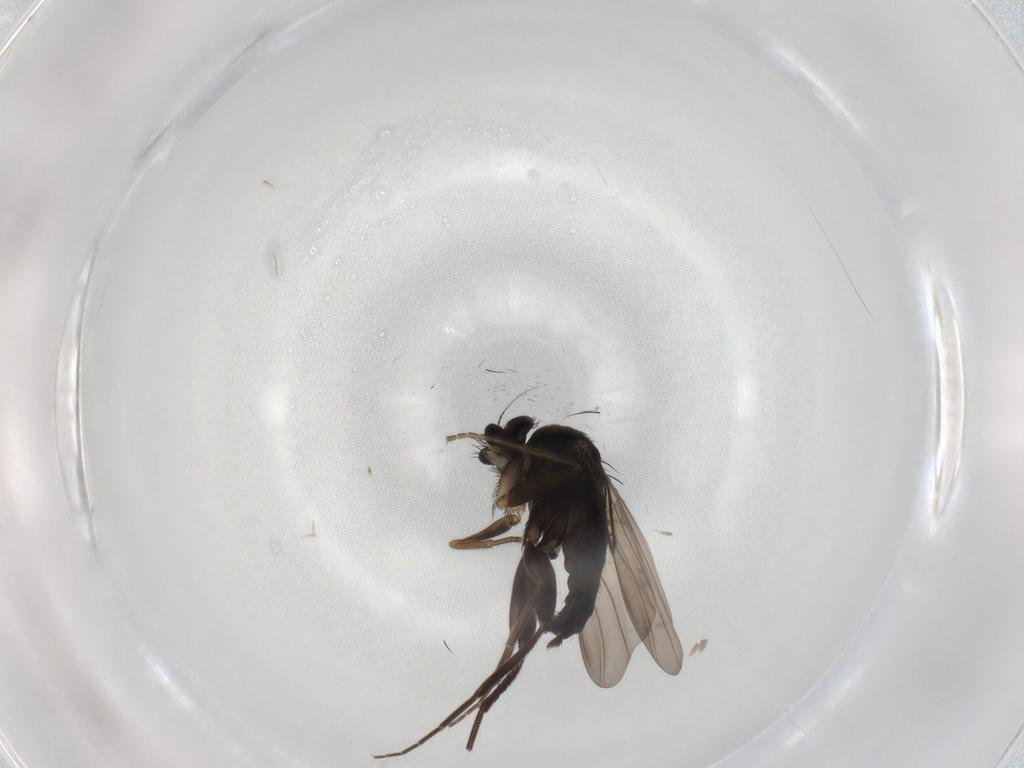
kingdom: Animalia
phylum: Arthropoda
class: Insecta
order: Diptera
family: Phoridae
